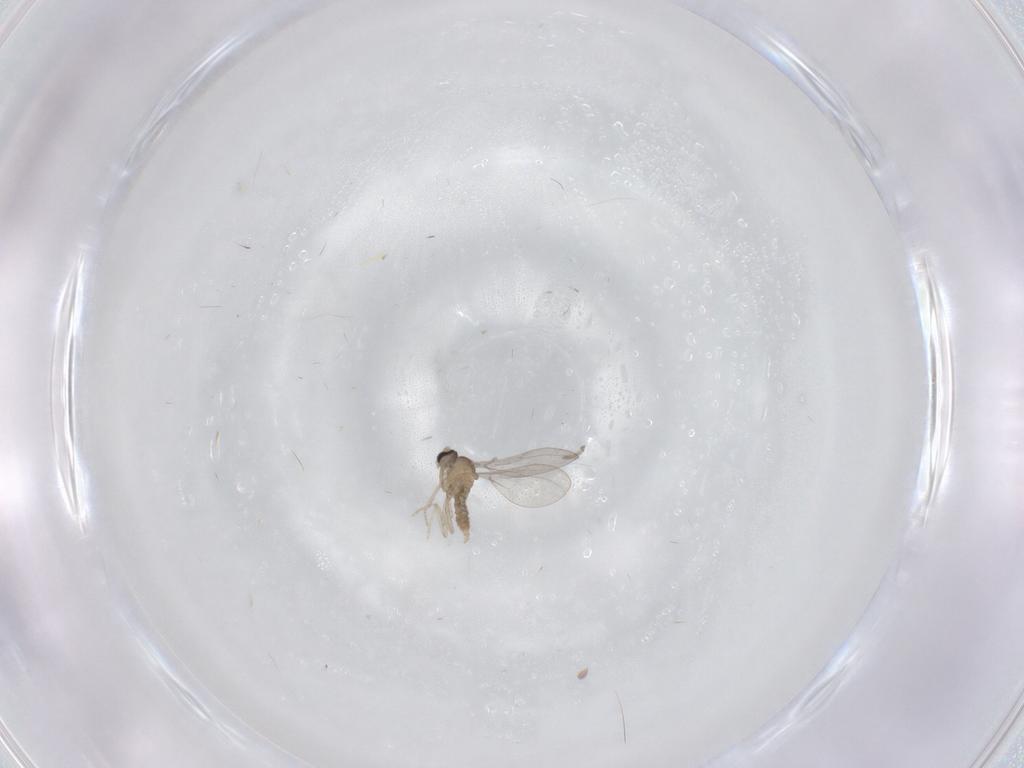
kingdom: Animalia
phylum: Arthropoda
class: Insecta
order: Diptera
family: Cecidomyiidae
